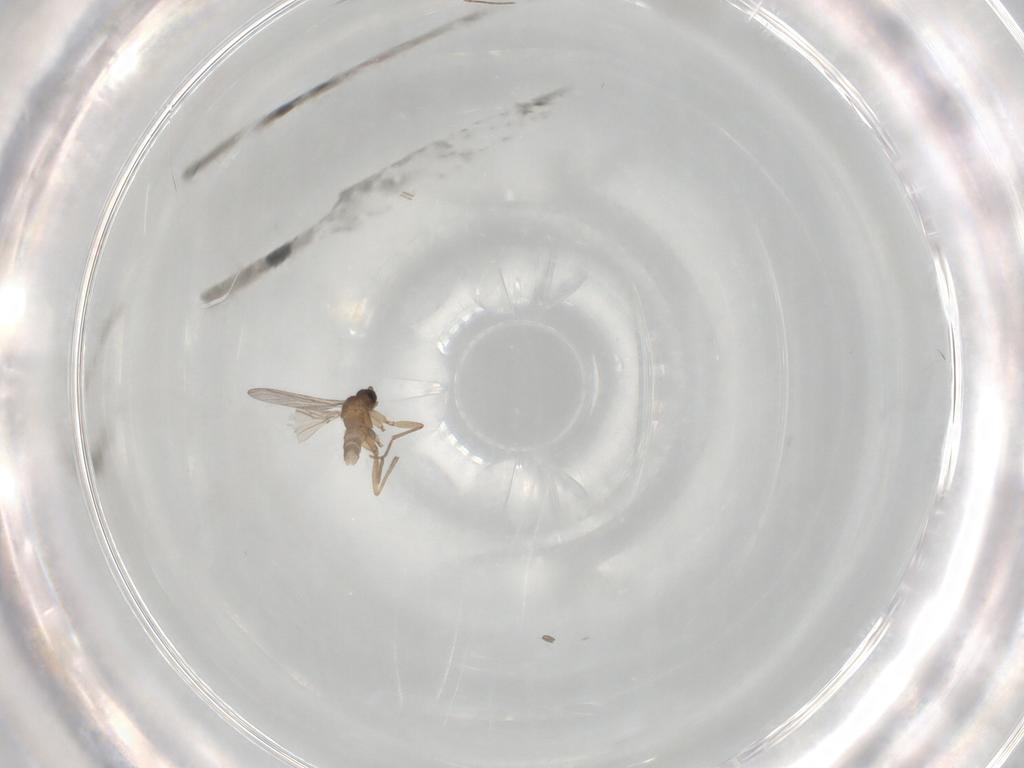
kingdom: Animalia
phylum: Arthropoda
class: Insecta
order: Diptera
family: Sciaridae
